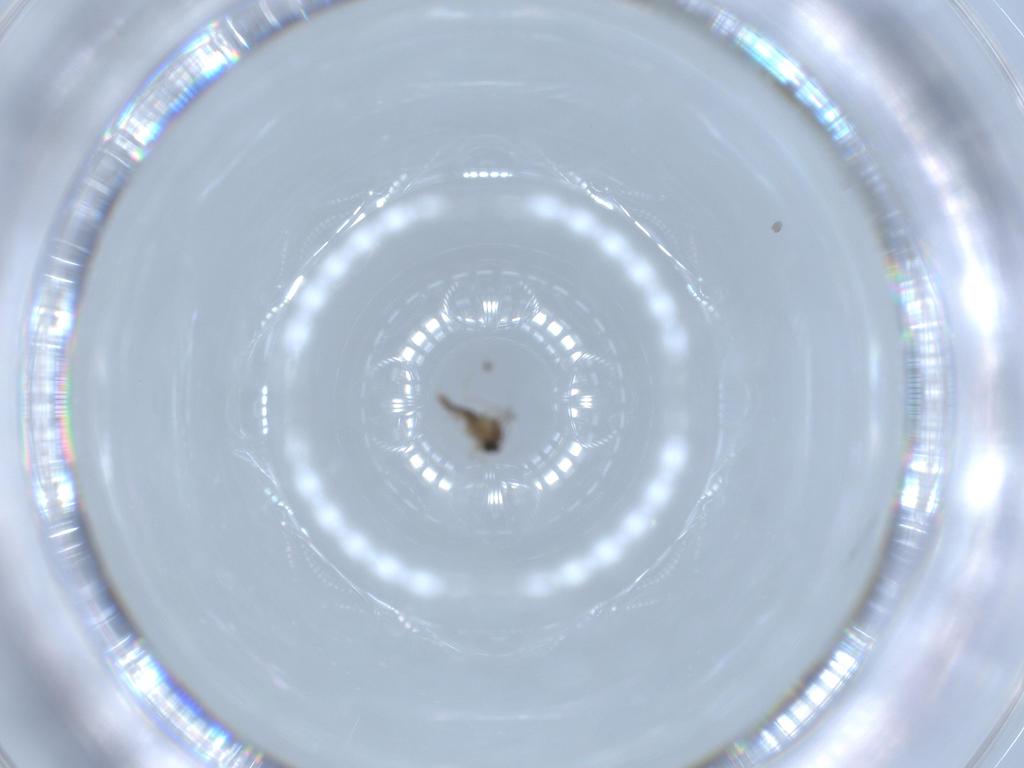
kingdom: Animalia
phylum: Arthropoda
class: Insecta
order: Diptera
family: Cecidomyiidae
